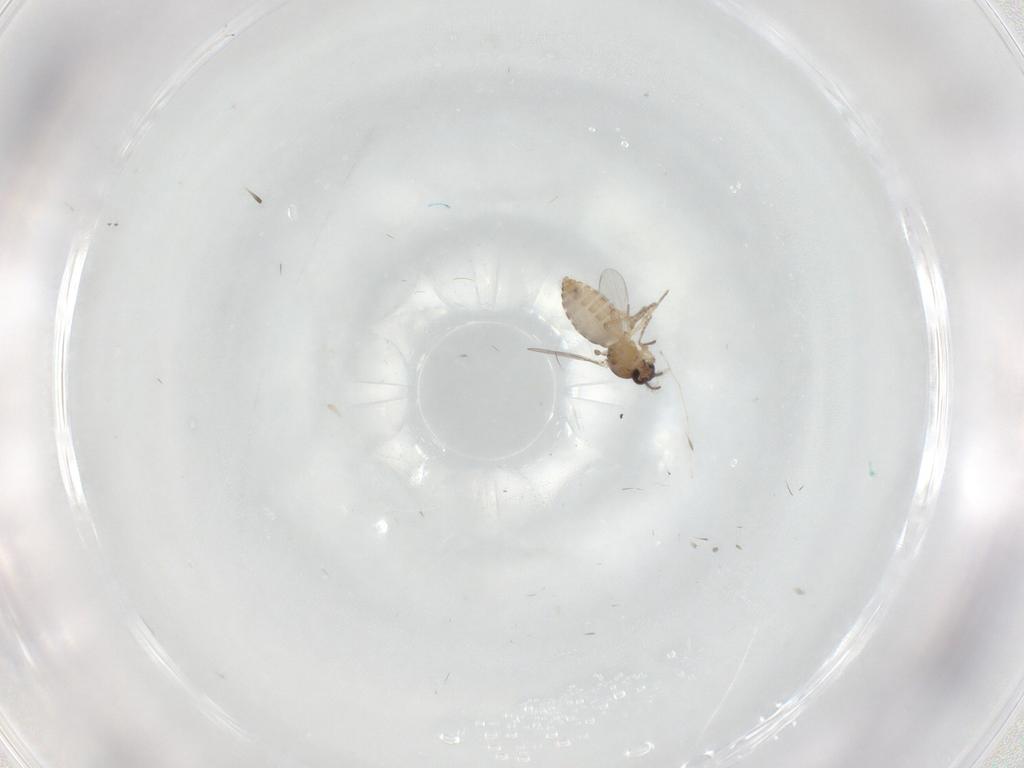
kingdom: Animalia
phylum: Arthropoda
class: Insecta
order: Diptera
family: Ceratopogonidae
